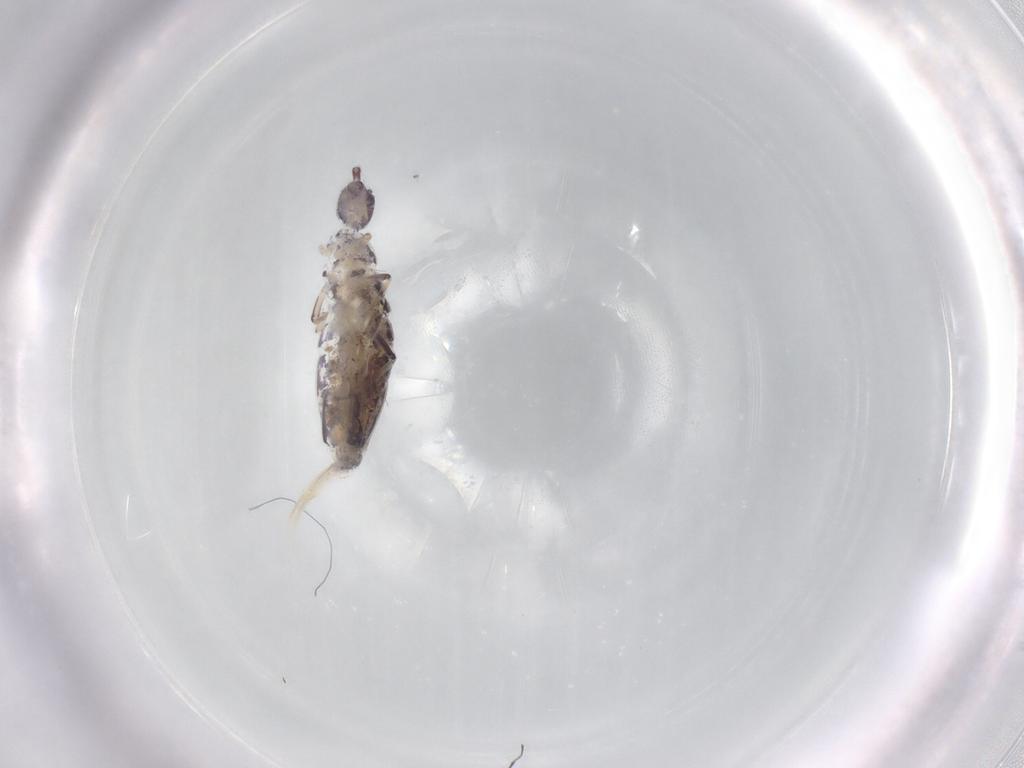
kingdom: Animalia
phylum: Arthropoda
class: Collembola
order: Entomobryomorpha
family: Entomobryidae
